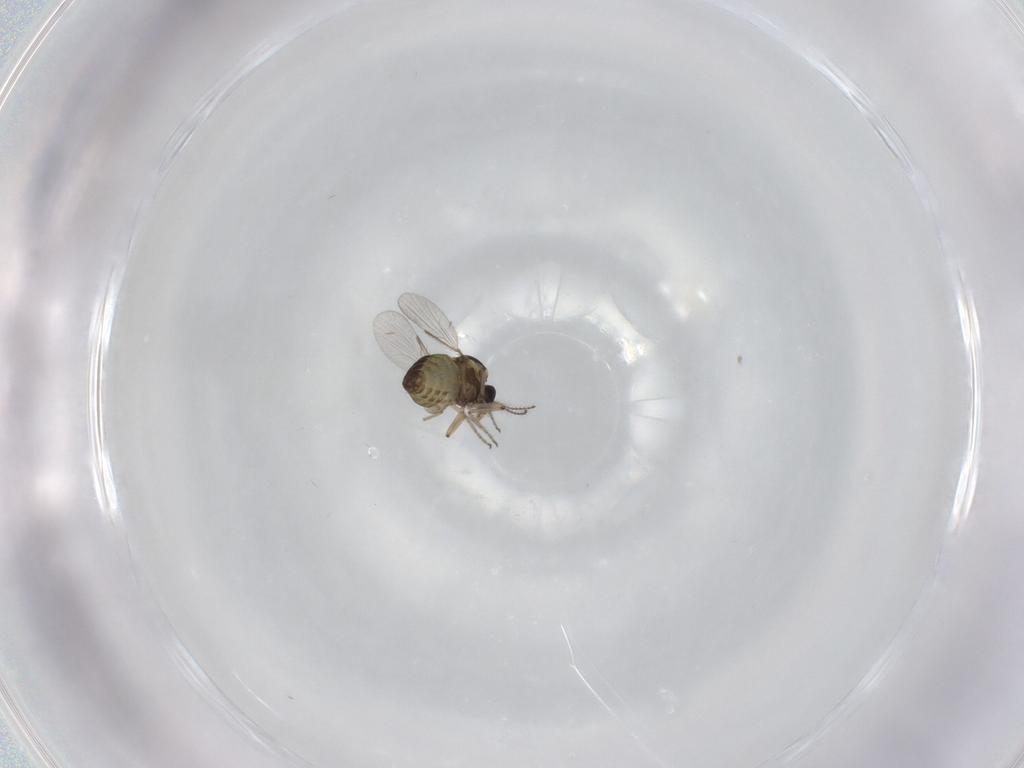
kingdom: Animalia
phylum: Arthropoda
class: Insecta
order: Diptera
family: Ceratopogonidae
